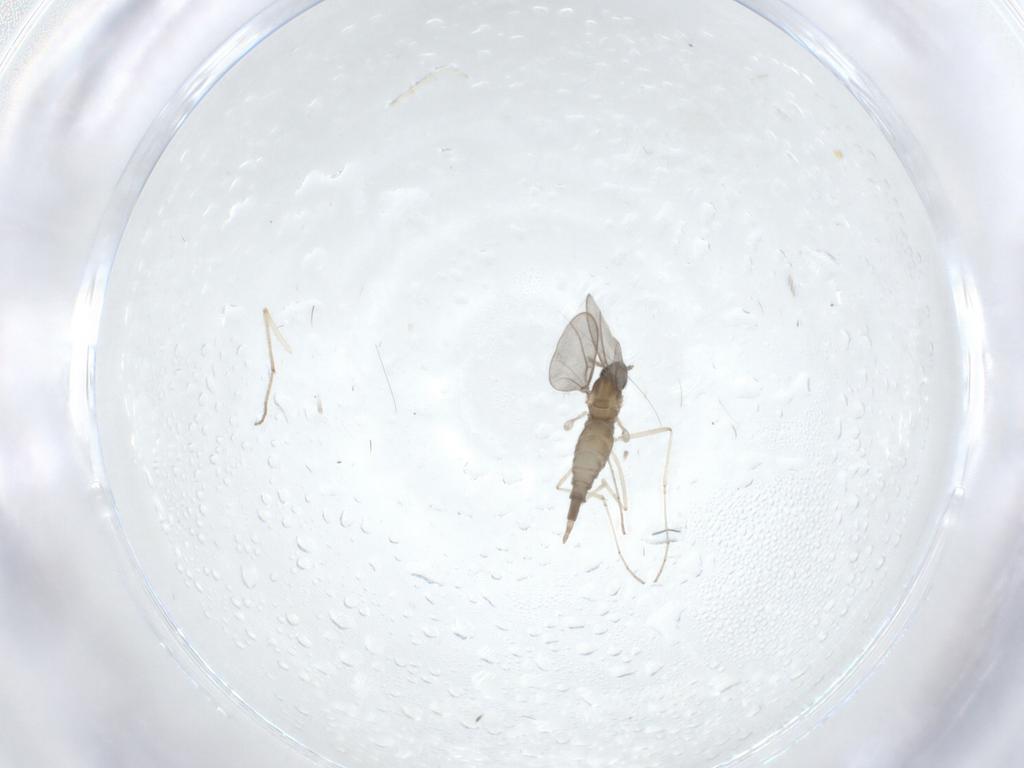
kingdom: Animalia
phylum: Arthropoda
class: Insecta
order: Diptera
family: Cecidomyiidae
